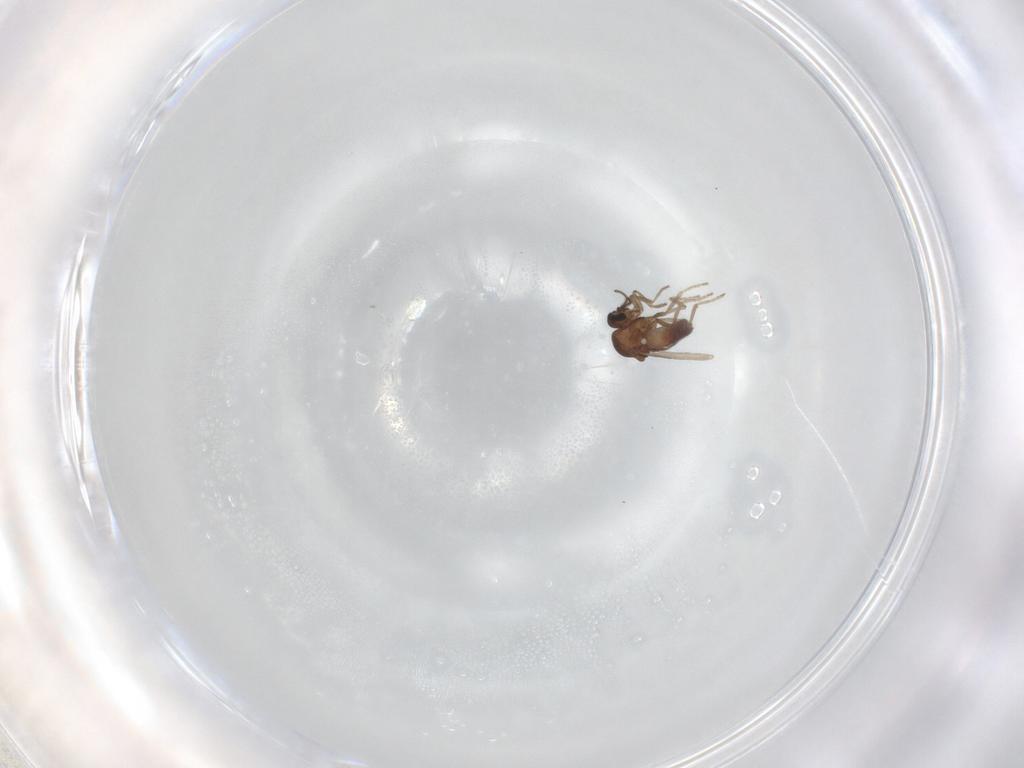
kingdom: Animalia
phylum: Arthropoda
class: Insecta
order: Diptera
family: Ceratopogonidae
